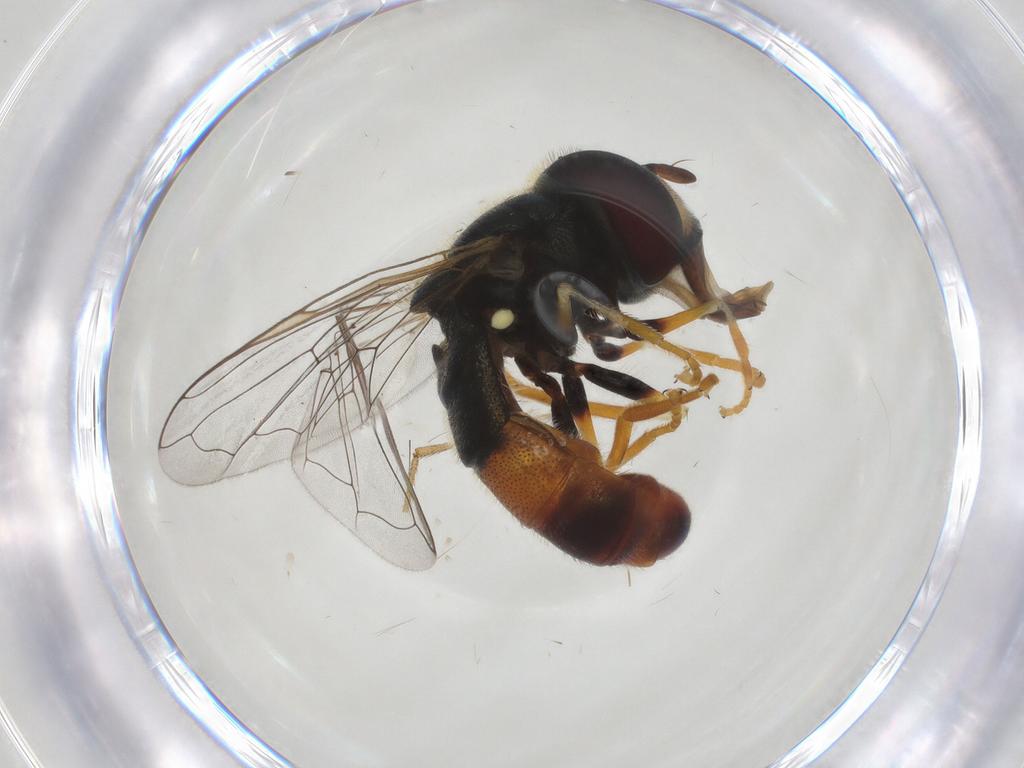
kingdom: Animalia
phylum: Arthropoda
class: Insecta
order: Diptera
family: Syrphidae
